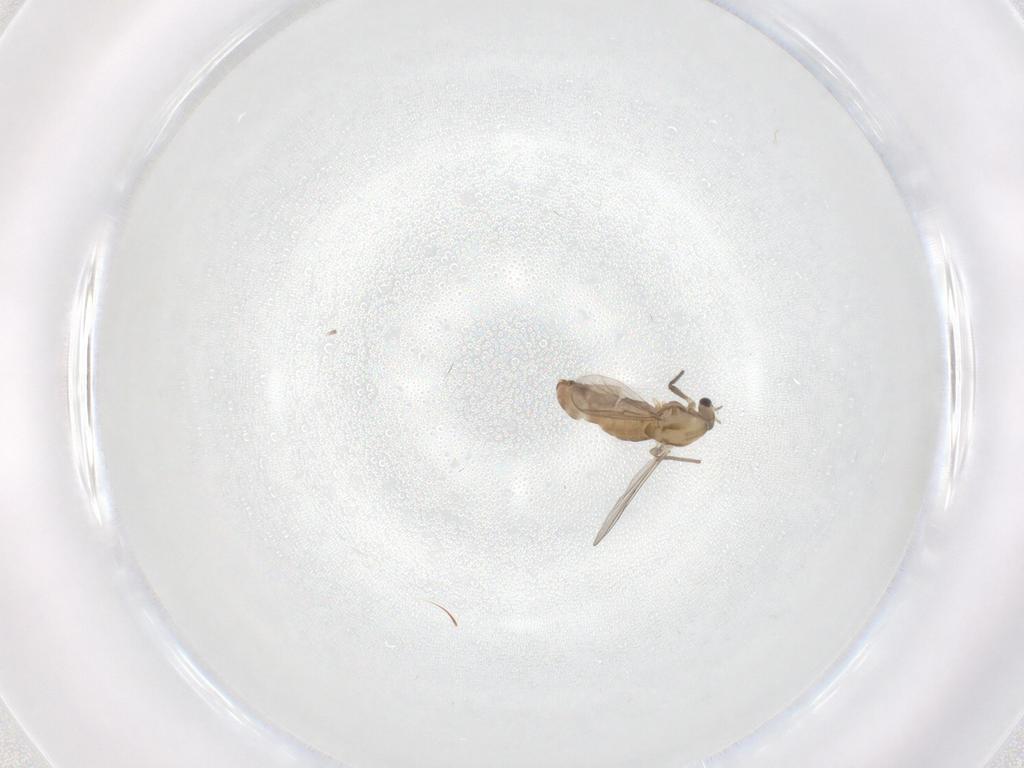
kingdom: Animalia
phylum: Arthropoda
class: Insecta
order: Diptera
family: Chironomidae
